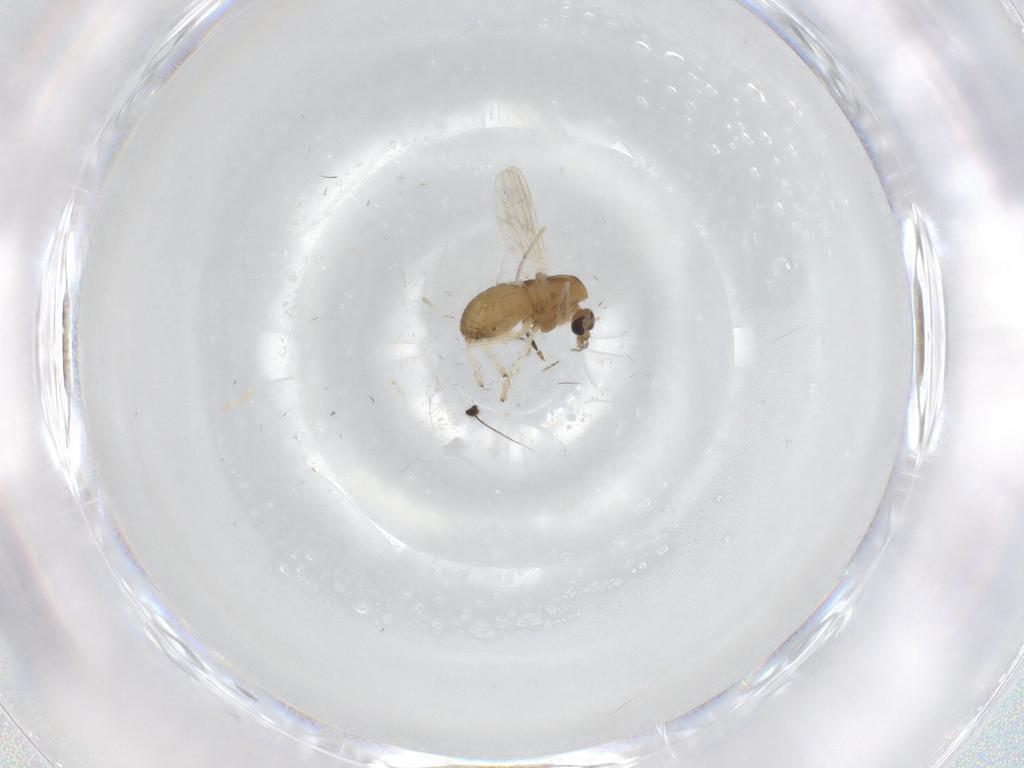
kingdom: Animalia
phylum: Arthropoda
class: Insecta
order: Diptera
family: Dolichopodidae
